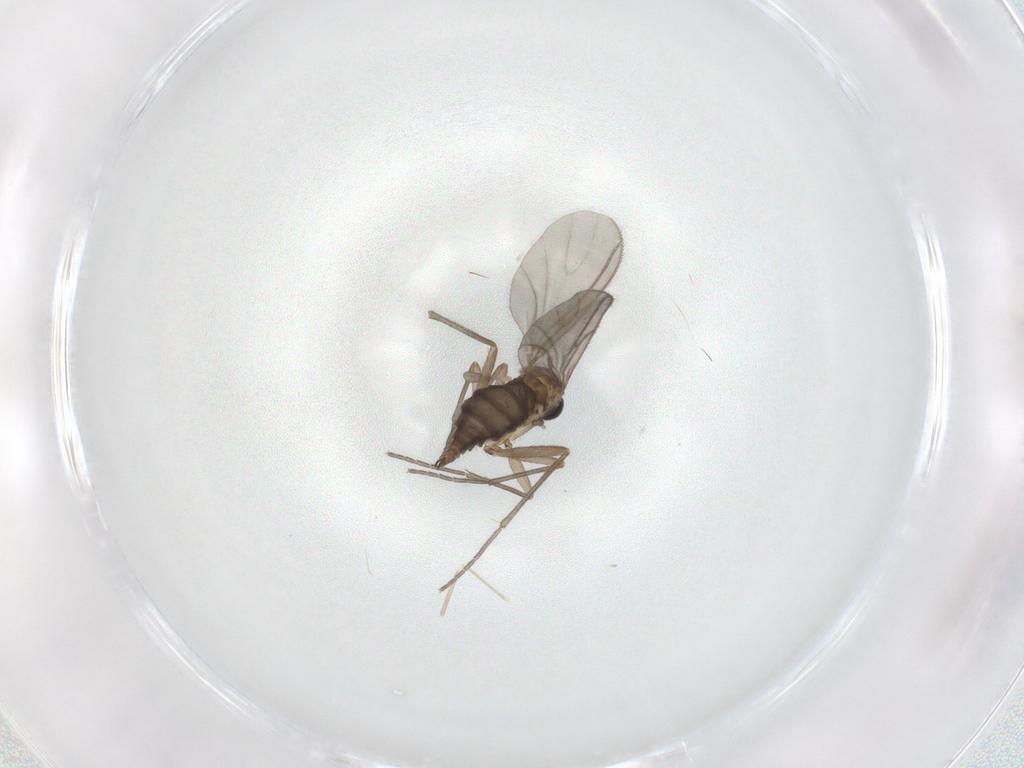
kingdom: Animalia
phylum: Arthropoda
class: Insecta
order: Diptera
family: Cecidomyiidae
